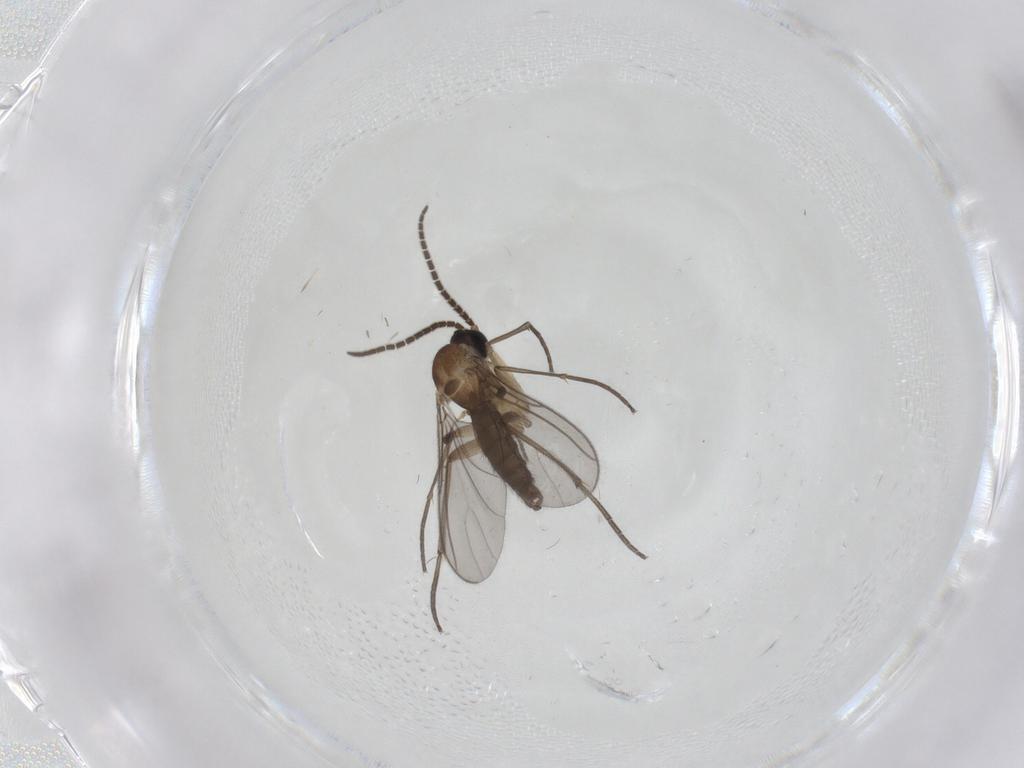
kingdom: Animalia
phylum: Arthropoda
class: Insecta
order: Diptera
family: Sciaridae
